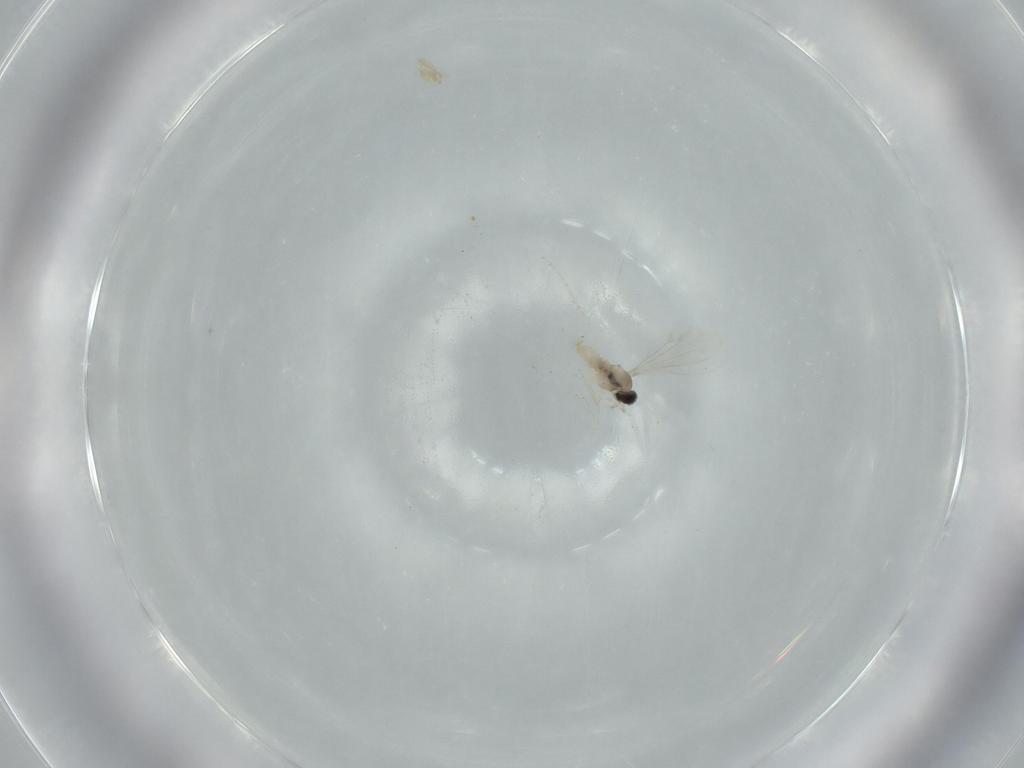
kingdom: Animalia
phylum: Arthropoda
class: Insecta
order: Diptera
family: Cecidomyiidae
